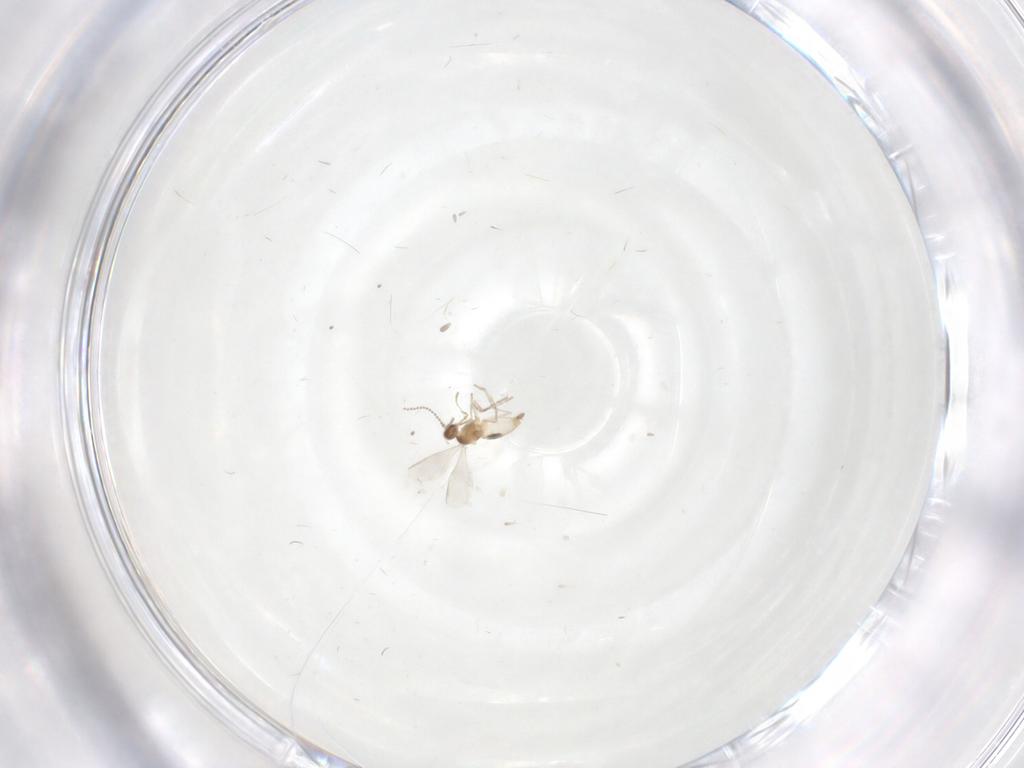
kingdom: Animalia
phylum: Arthropoda
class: Insecta
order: Diptera
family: Cecidomyiidae
